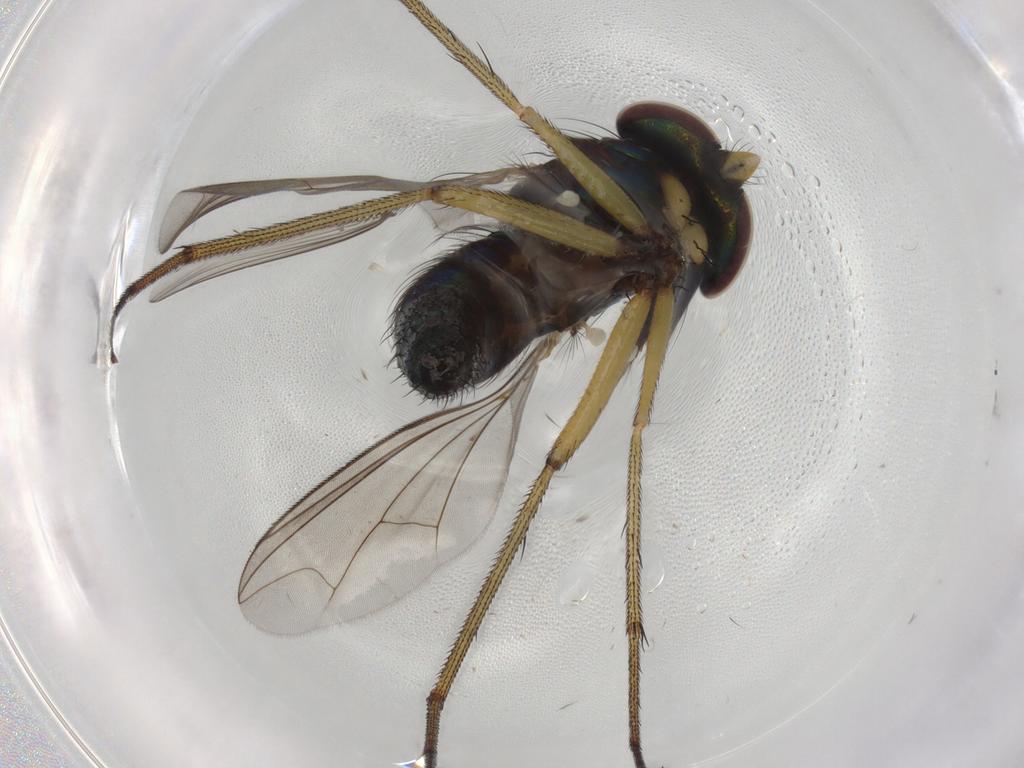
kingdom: Animalia
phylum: Arthropoda
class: Insecta
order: Diptera
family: Dolichopodidae
